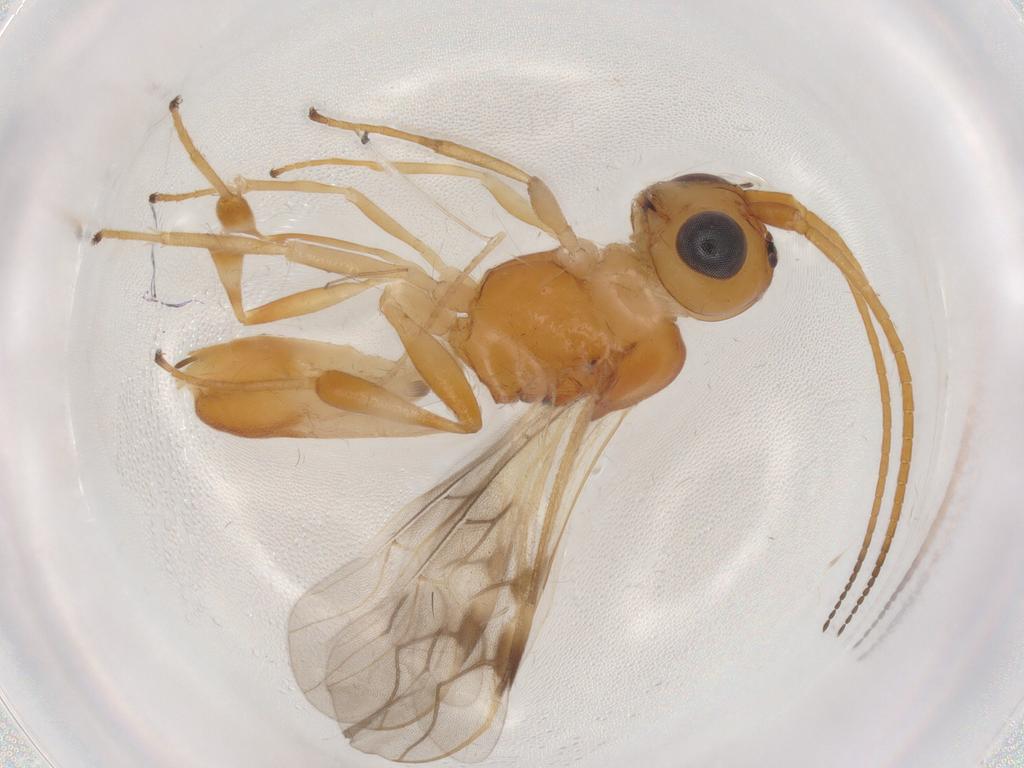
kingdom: Animalia
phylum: Arthropoda
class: Insecta
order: Hymenoptera
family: Braconidae
